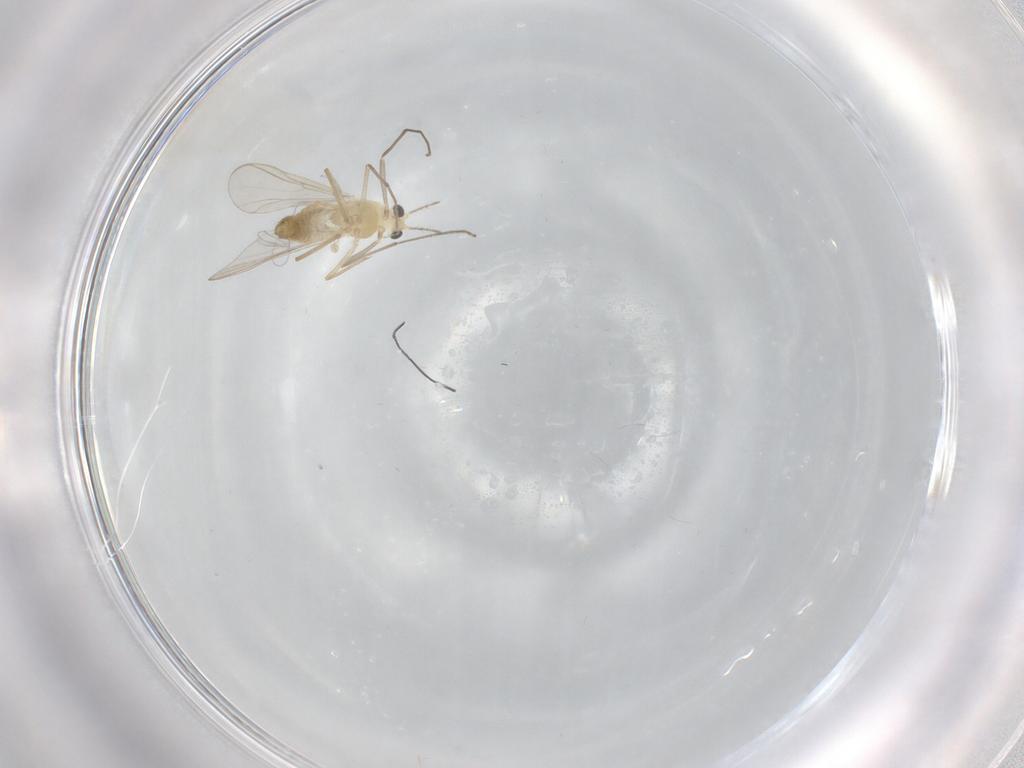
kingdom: Animalia
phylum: Arthropoda
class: Insecta
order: Diptera
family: Chironomidae
